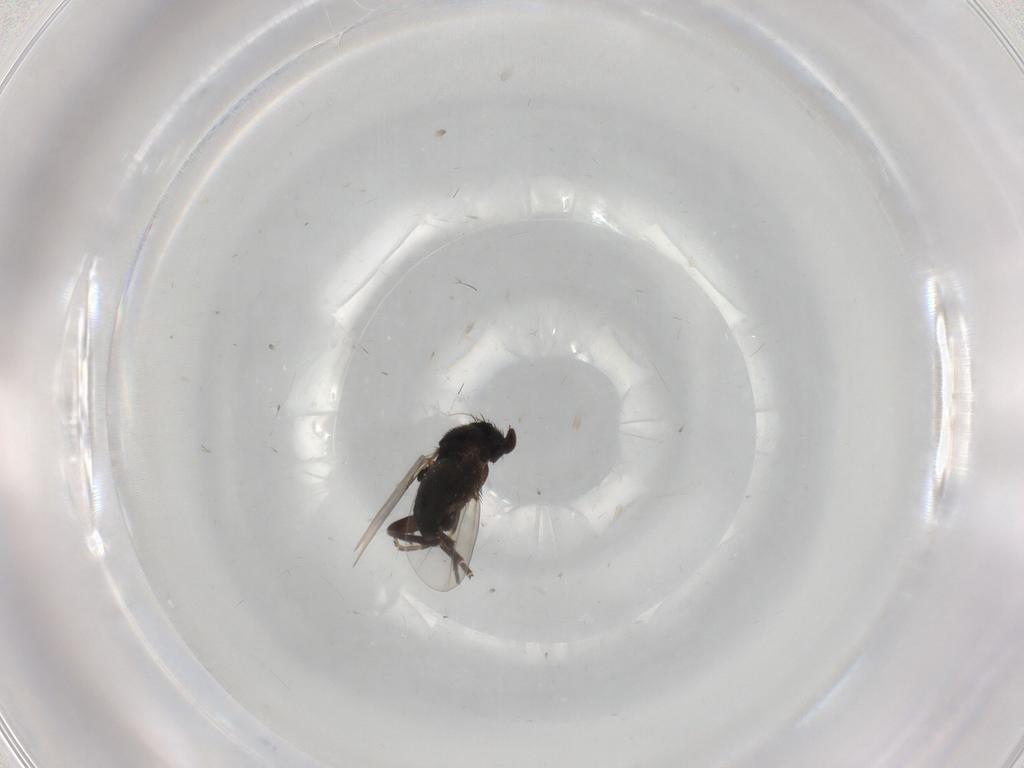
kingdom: Animalia
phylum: Arthropoda
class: Insecta
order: Diptera
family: Phoridae
